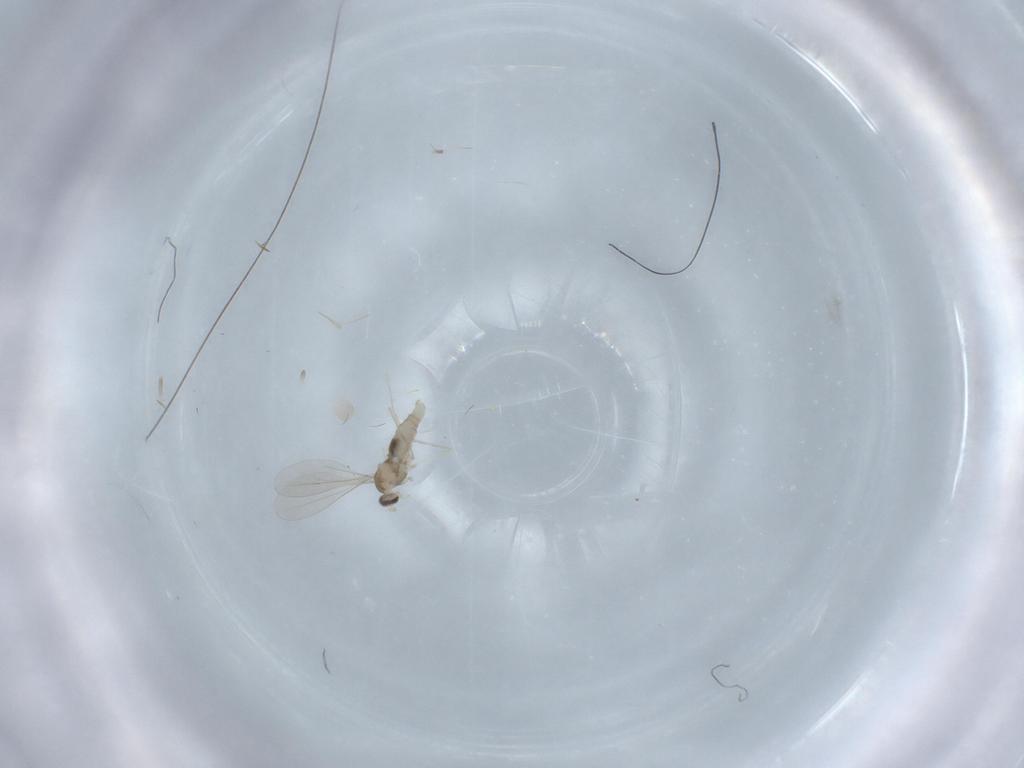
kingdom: Animalia
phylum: Arthropoda
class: Insecta
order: Diptera
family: Cecidomyiidae
